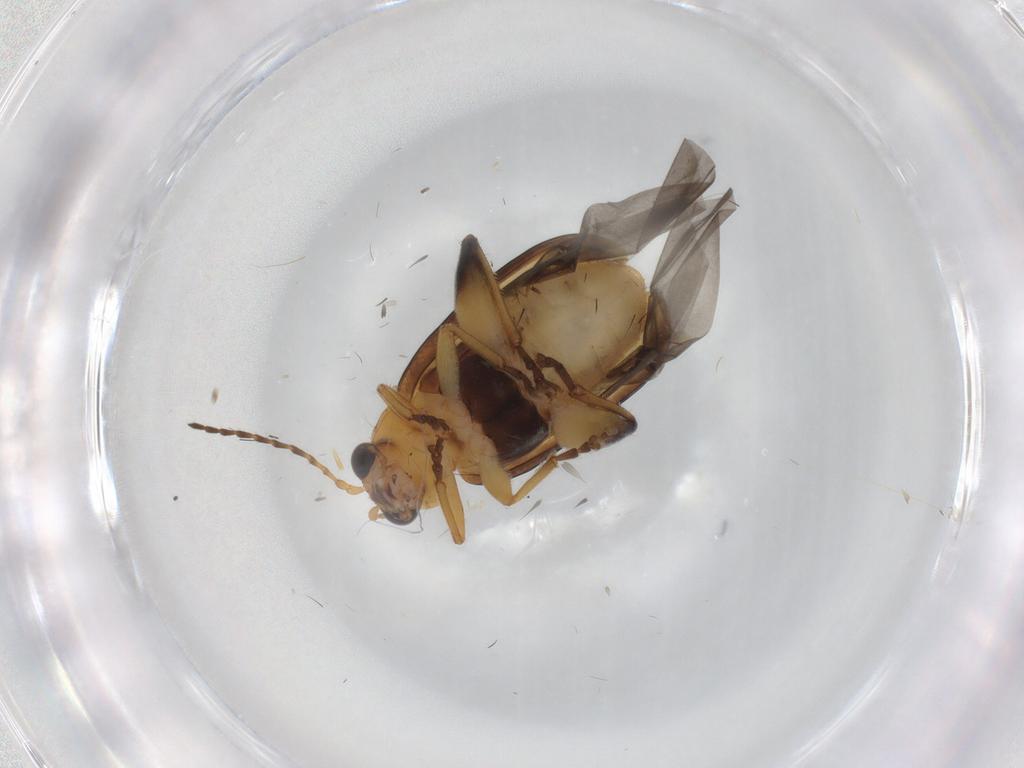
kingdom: Animalia
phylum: Arthropoda
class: Insecta
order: Coleoptera
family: Chrysomelidae
